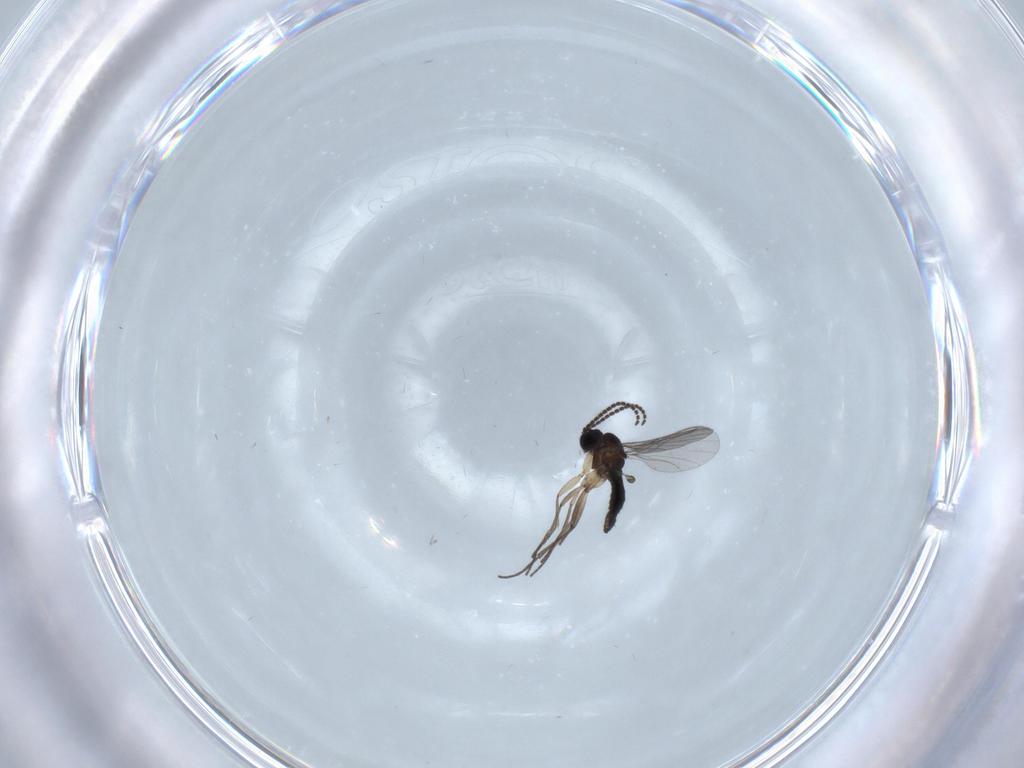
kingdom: Animalia
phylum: Arthropoda
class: Insecta
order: Diptera
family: Sciaridae
